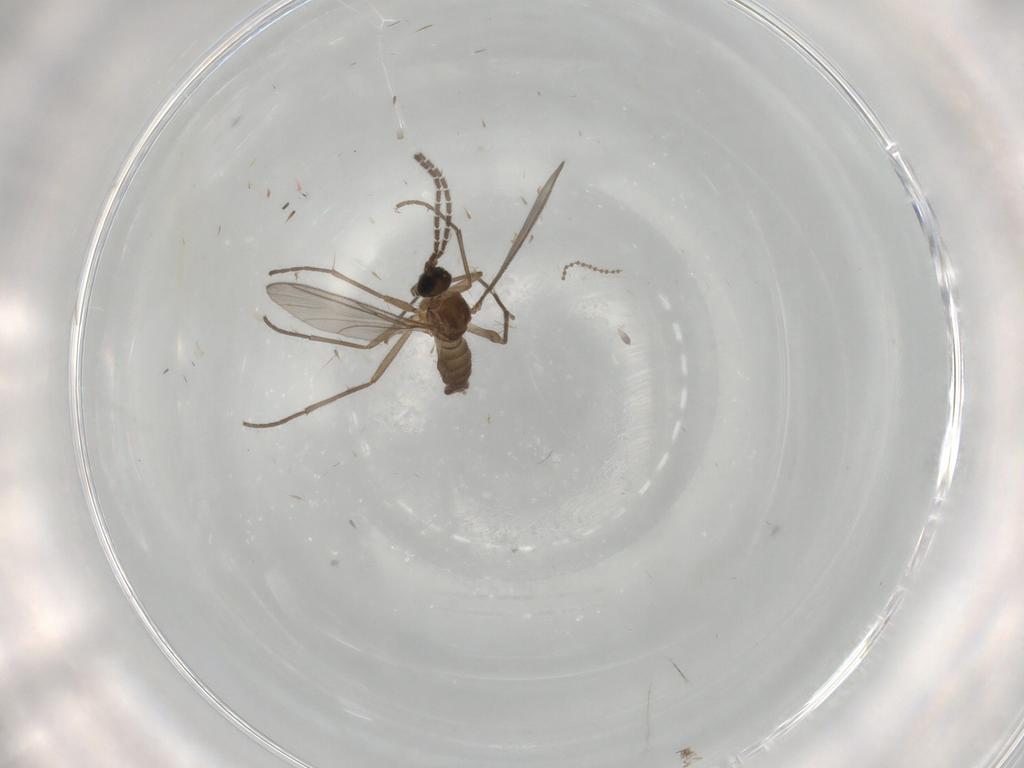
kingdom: Animalia
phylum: Arthropoda
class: Insecta
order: Diptera
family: Sciaridae
